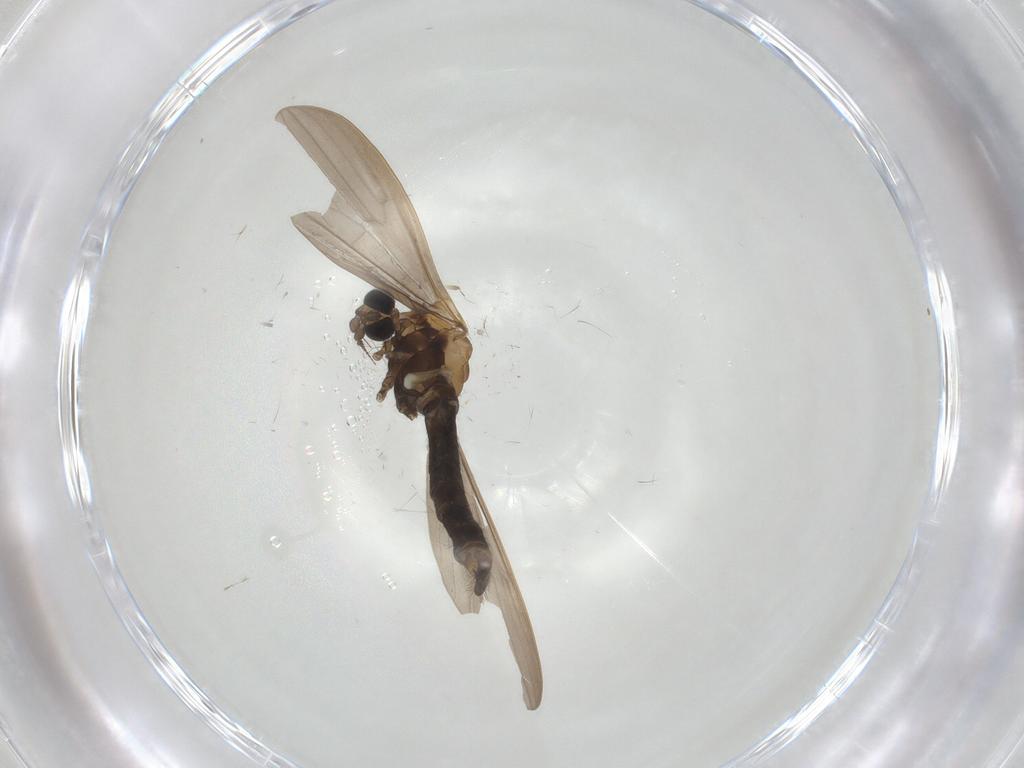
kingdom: Animalia
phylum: Arthropoda
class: Insecta
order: Diptera
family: Limoniidae
